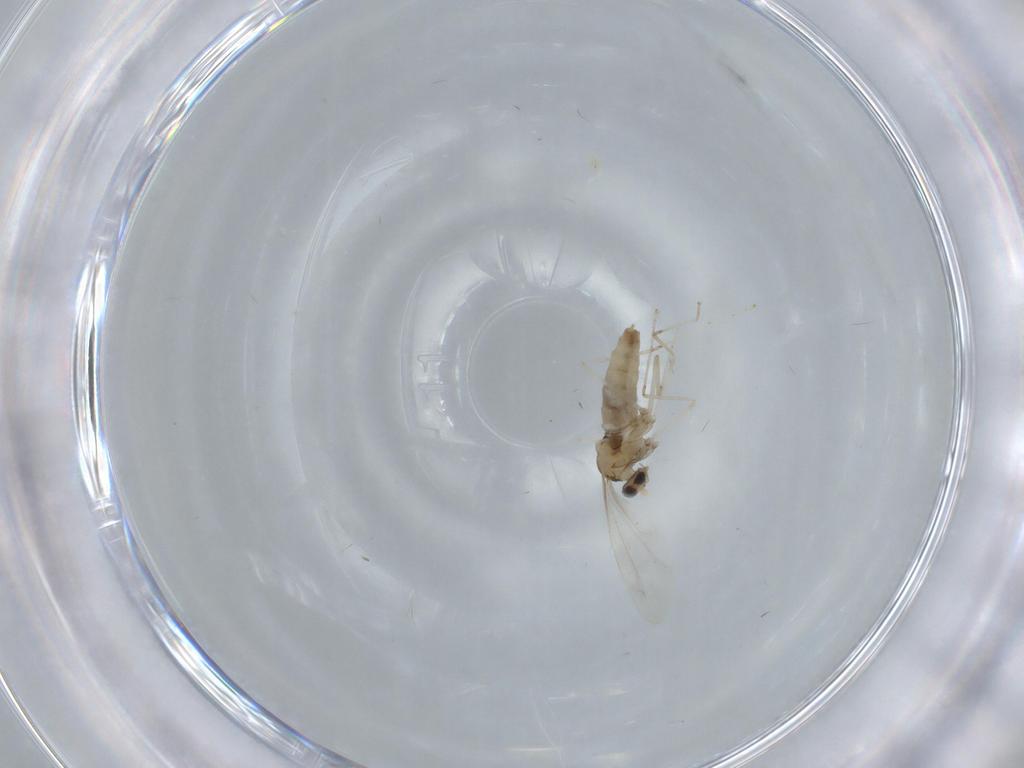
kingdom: Animalia
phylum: Arthropoda
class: Insecta
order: Diptera
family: Cecidomyiidae
